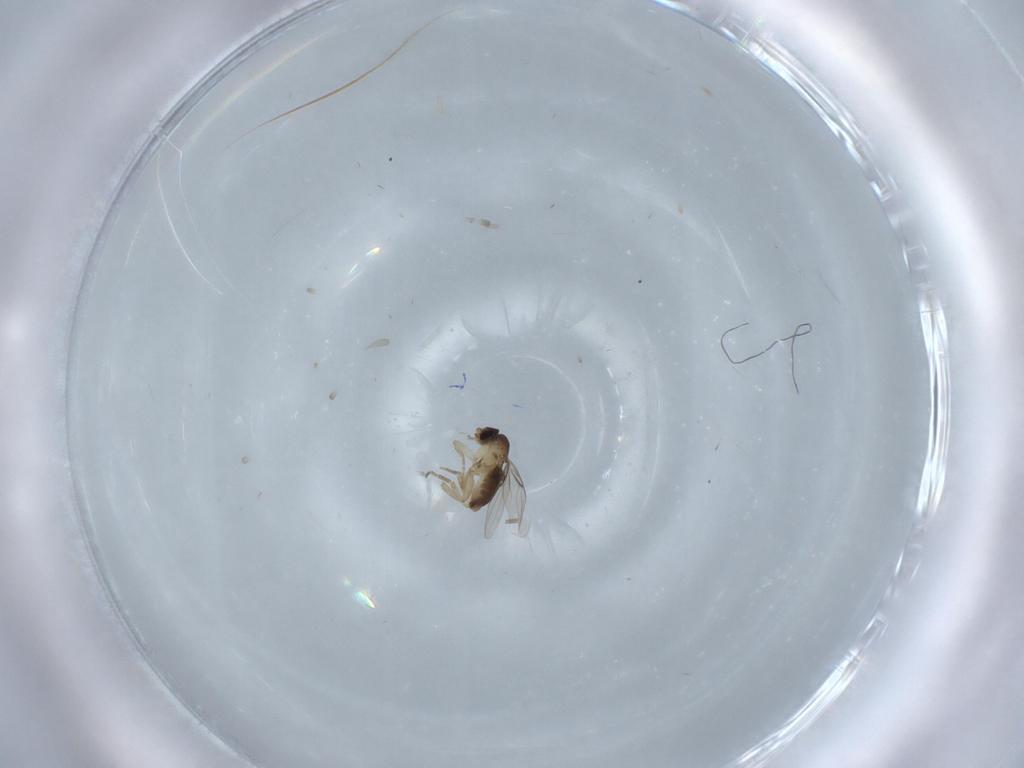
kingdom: Animalia
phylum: Arthropoda
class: Insecta
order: Diptera
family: Phoridae
